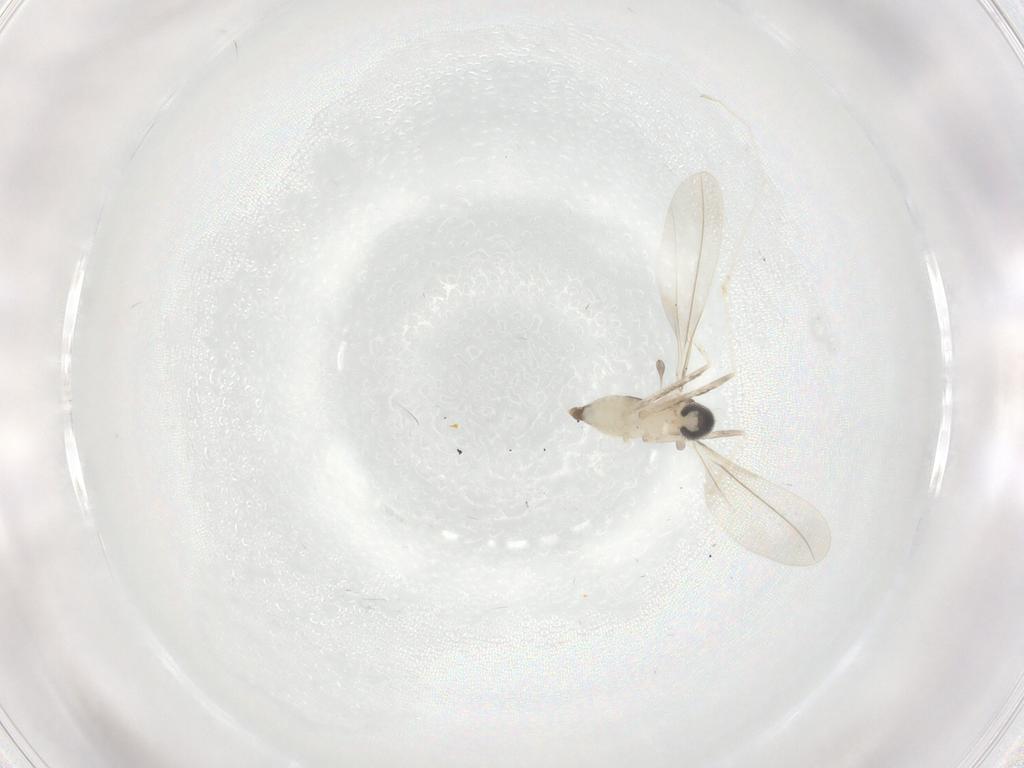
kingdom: Animalia
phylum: Arthropoda
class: Insecta
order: Diptera
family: Cecidomyiidae
